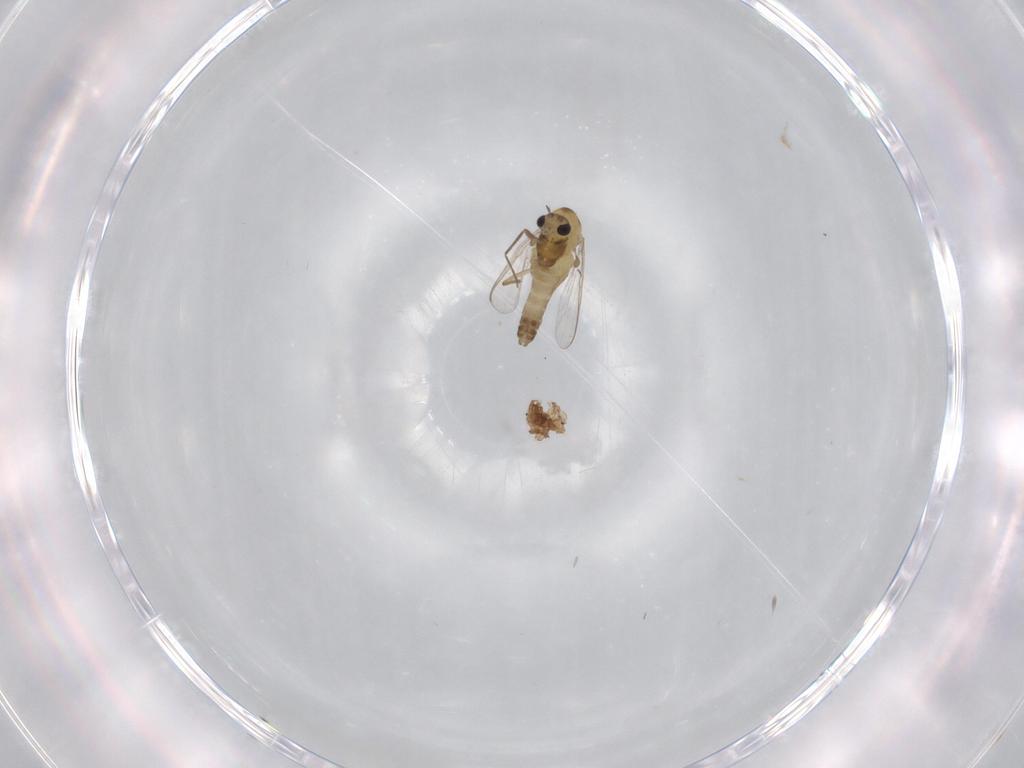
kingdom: Animalia
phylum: Arthropoda
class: Insecta
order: Diptera
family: Chironomidae
